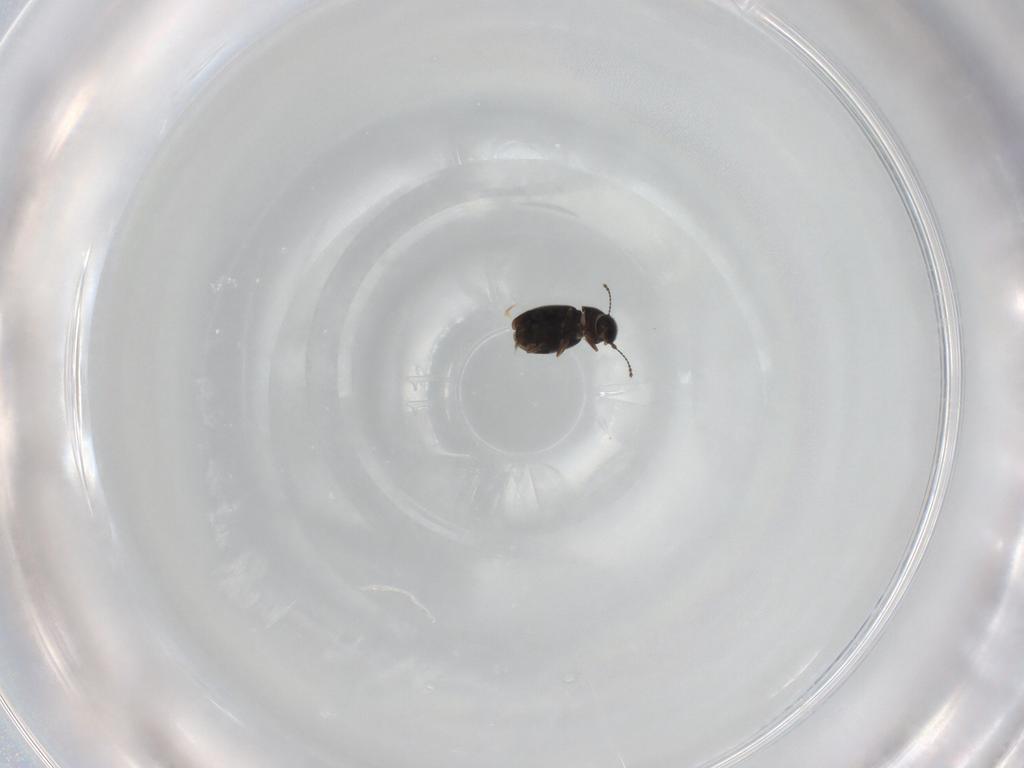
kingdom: Animalia
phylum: Arthropoda
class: Insecta
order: Coleoptera
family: Ptiliidae
